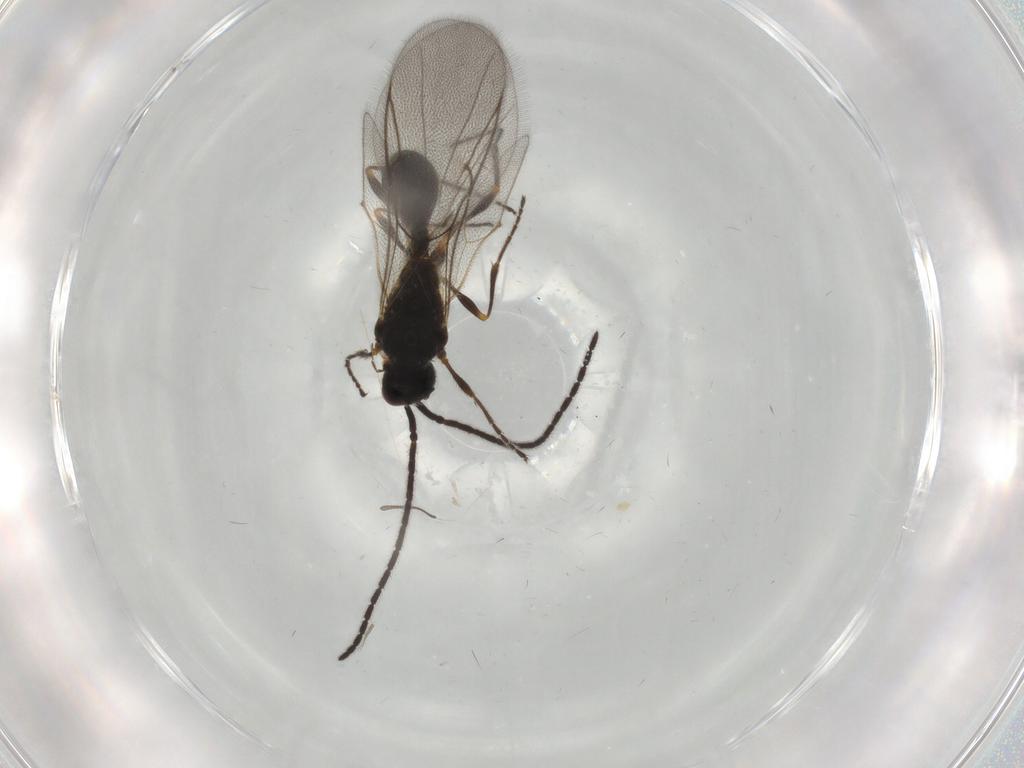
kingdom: Animalia
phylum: Arthropoda
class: Insecta
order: Hymenoptera
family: Diapriidae
